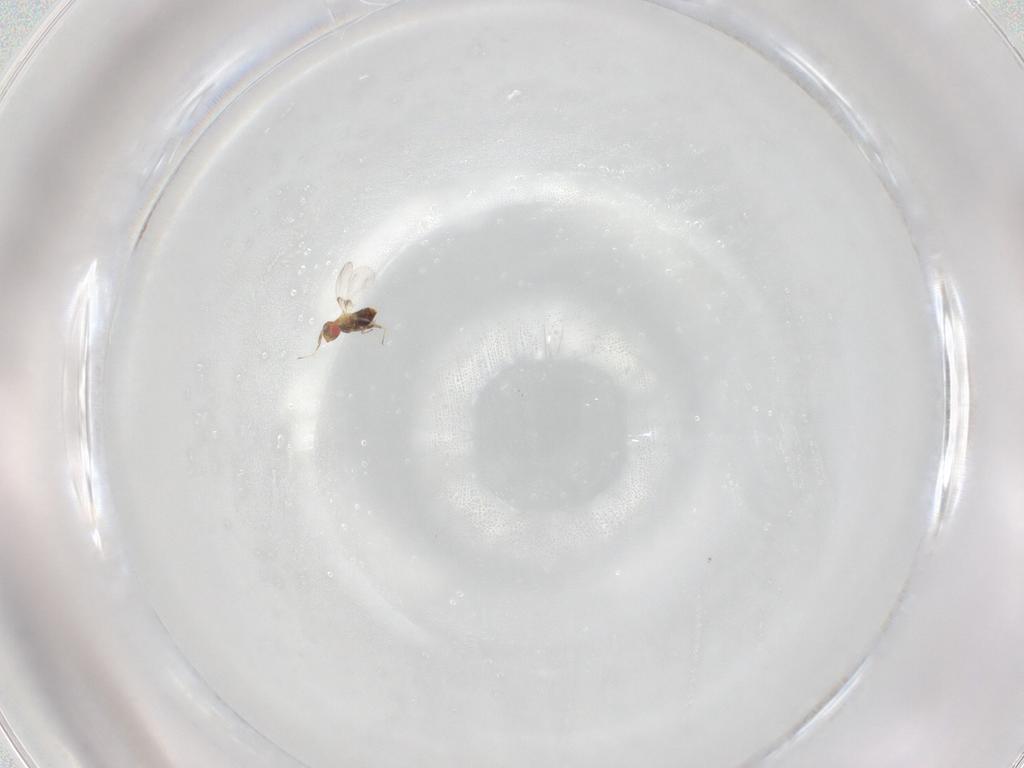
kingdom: Animalia
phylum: Arthropoda
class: Insecta
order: Hymenoptera
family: Trichogrammatidae
